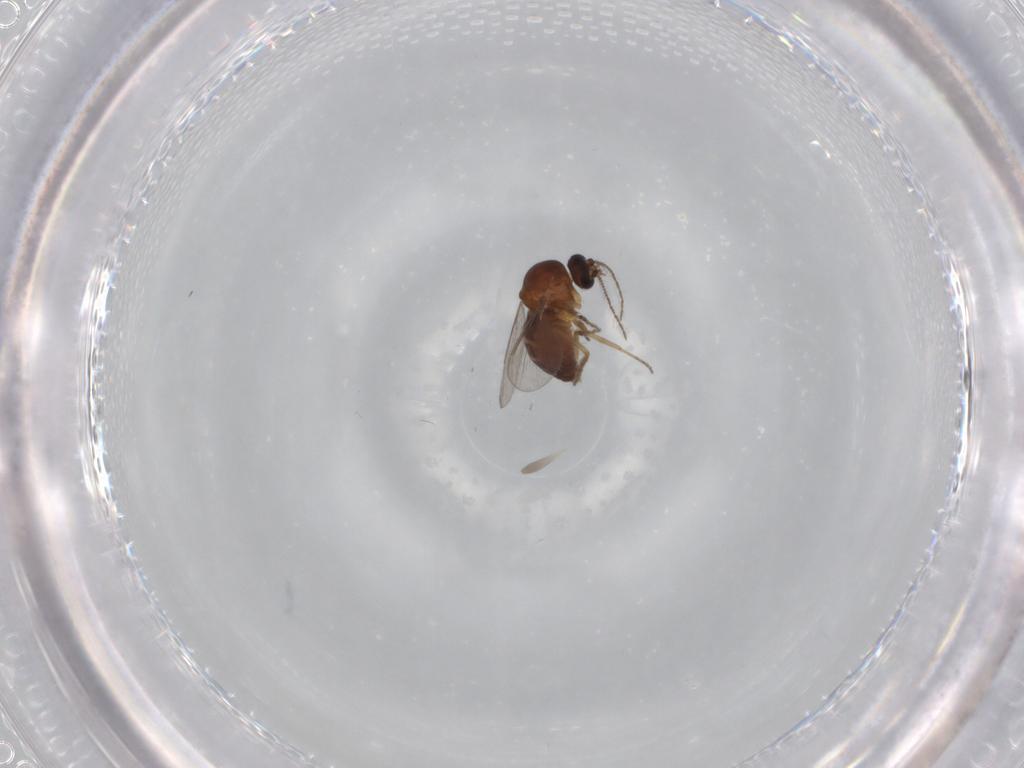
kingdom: Animalia
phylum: Arthropoda
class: Insecta
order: Diptera
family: Ceratopogonidae
